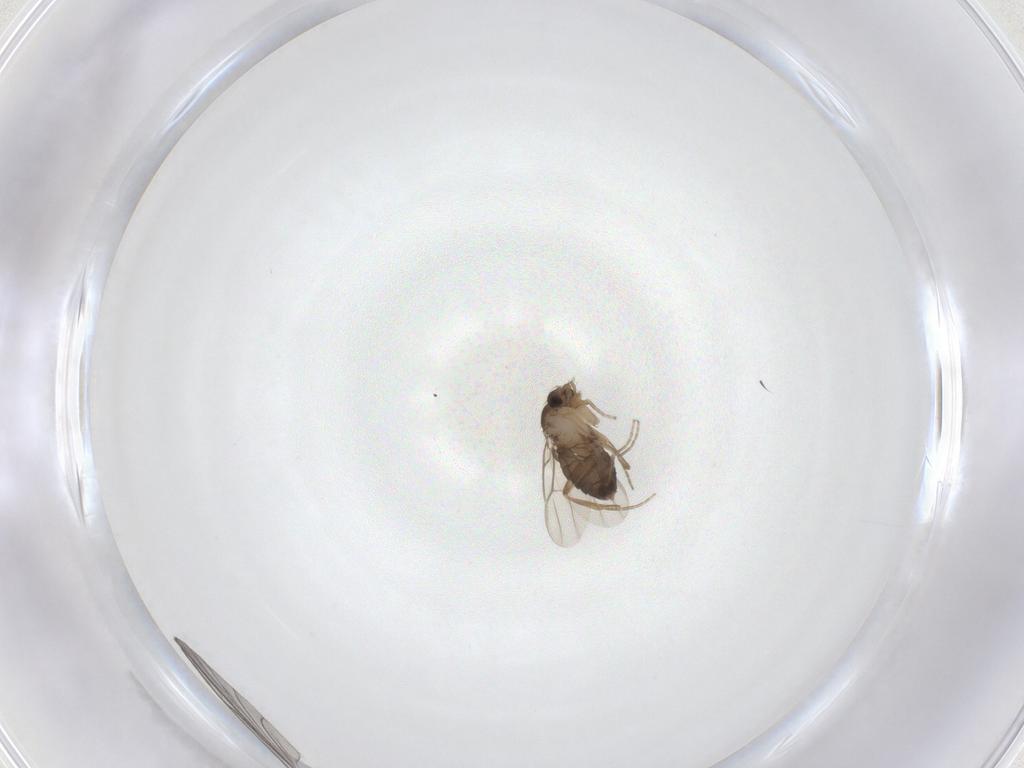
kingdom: Animalia
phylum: Arthropoda
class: Insecta
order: Diptera
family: Phoridae
